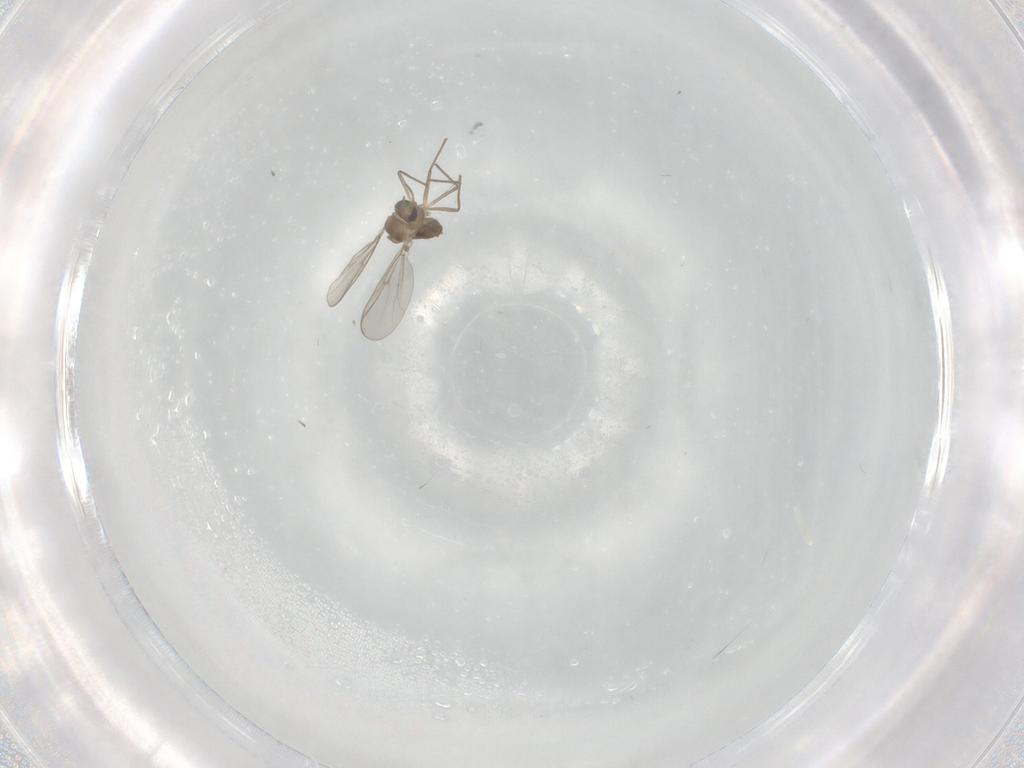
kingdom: Animalia
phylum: Arthropoda
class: Insecta
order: Diptera
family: Chironomidae
